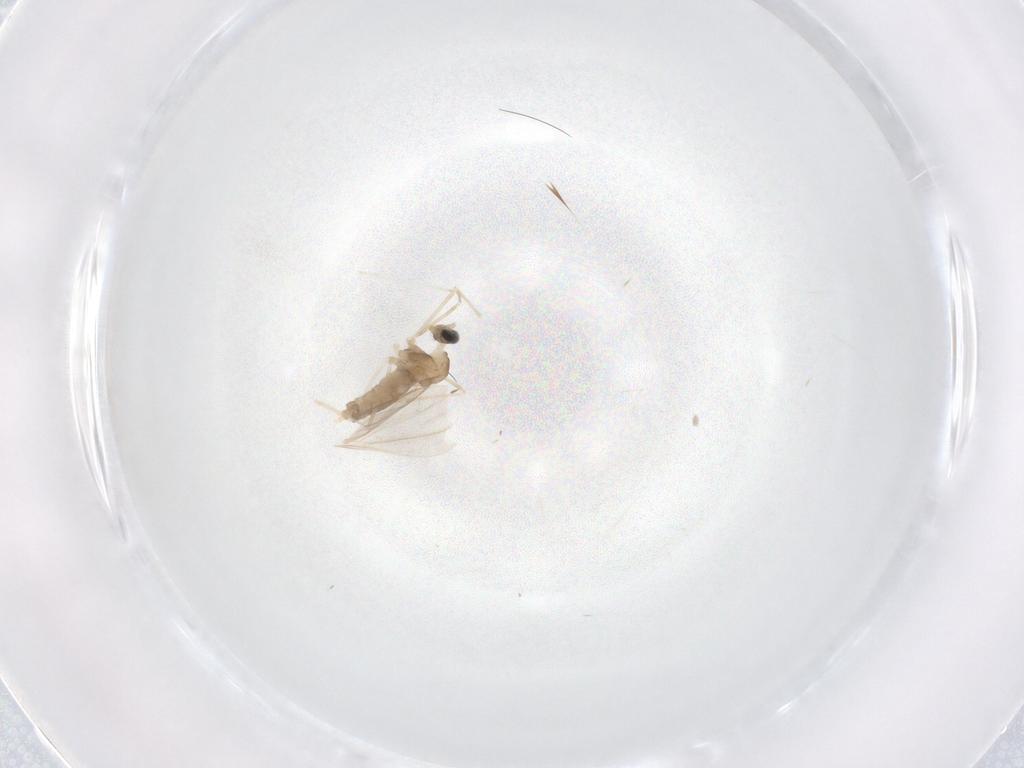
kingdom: Animalia
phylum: Arthropoda
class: Insecta
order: Diptera
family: Cecidomyiidae
